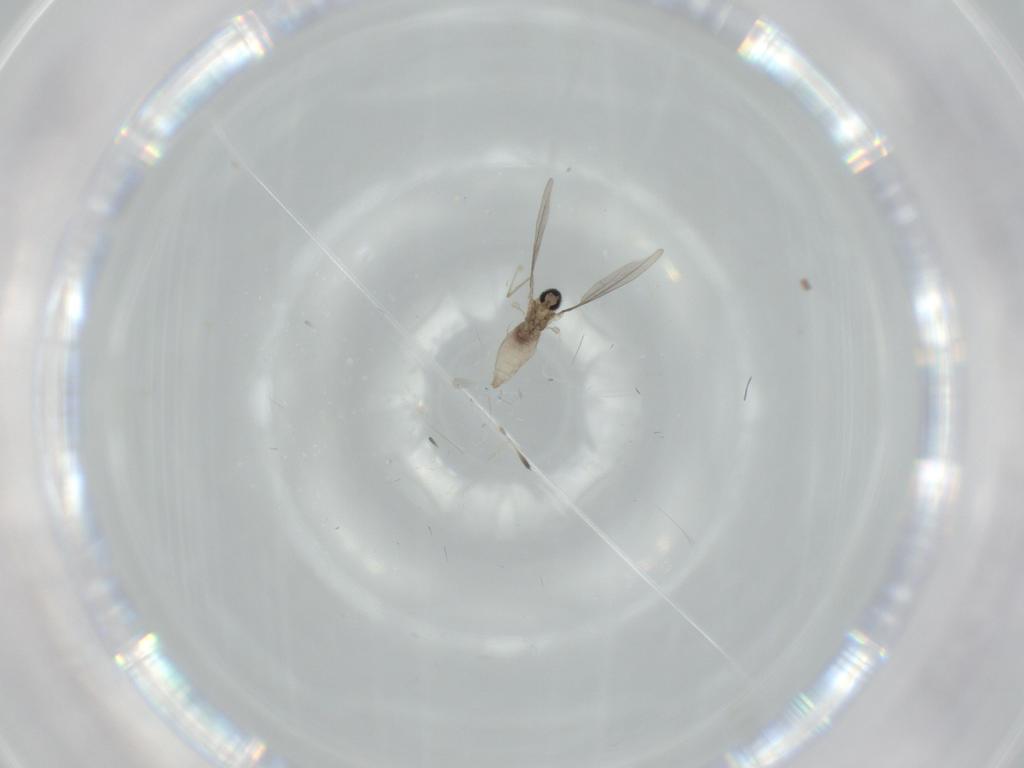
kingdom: Animalia
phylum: Arthropoda
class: Insecta
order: Diptera
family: Cecidomyiidae
